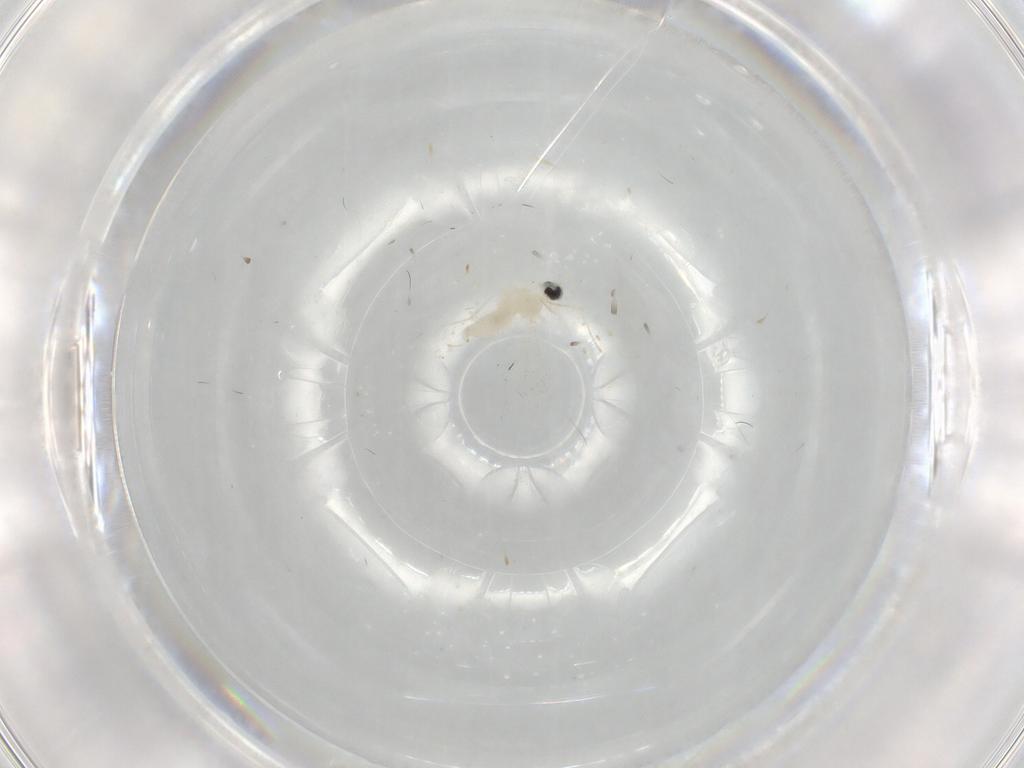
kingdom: Animalia
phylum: Arthropoda
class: Insecta
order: Diptera
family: Cecidomyiidae
